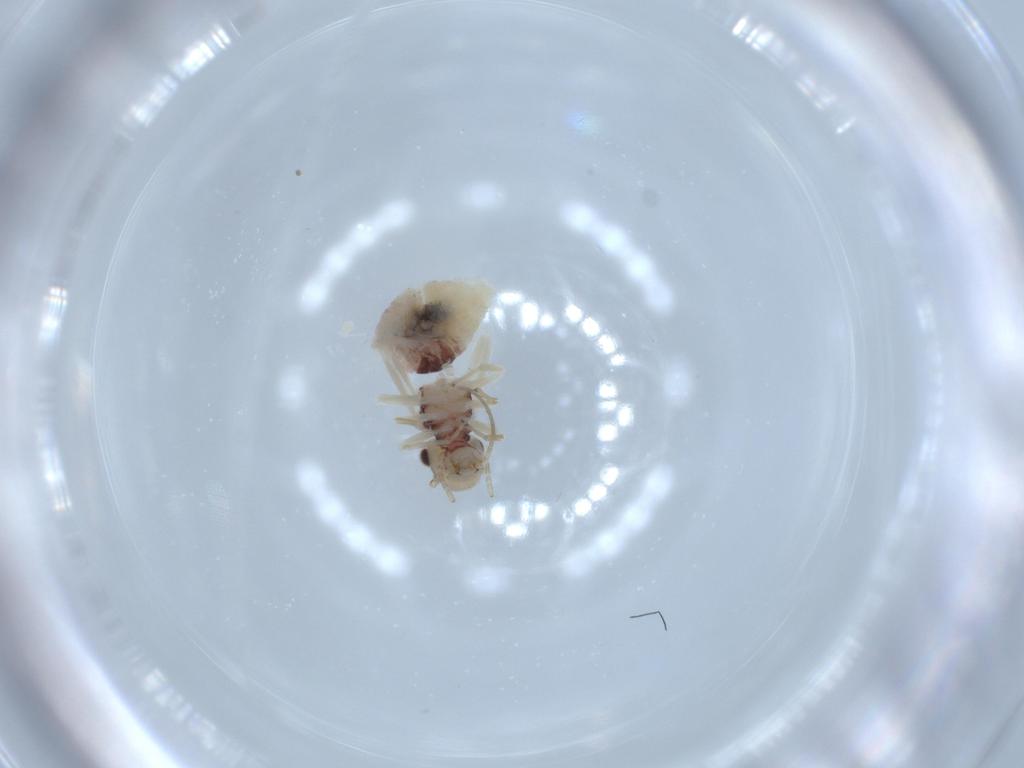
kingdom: Animalia
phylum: Arthropoda
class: Insecta
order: Psocodea
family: Caeciliusidae
